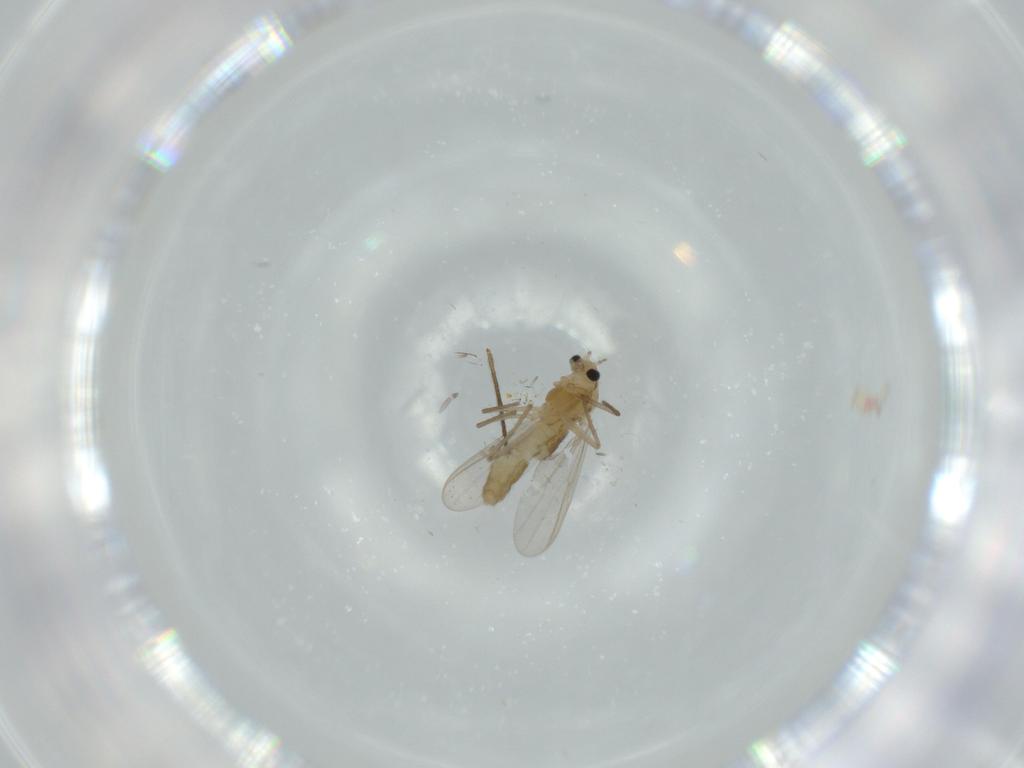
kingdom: Animalia
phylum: Arthropoda
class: Insecta
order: Diptera
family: Chironomidae
